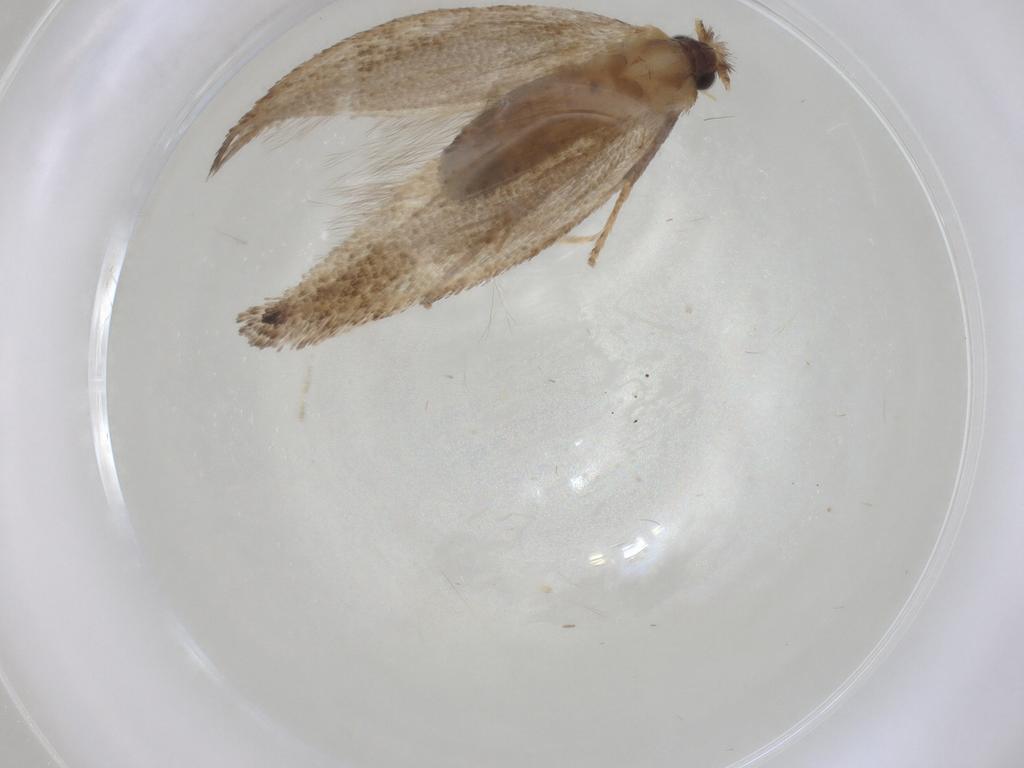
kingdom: Animalia
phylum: Arthropoda
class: Insecta
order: Lepidoptera
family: Nepticulidae
